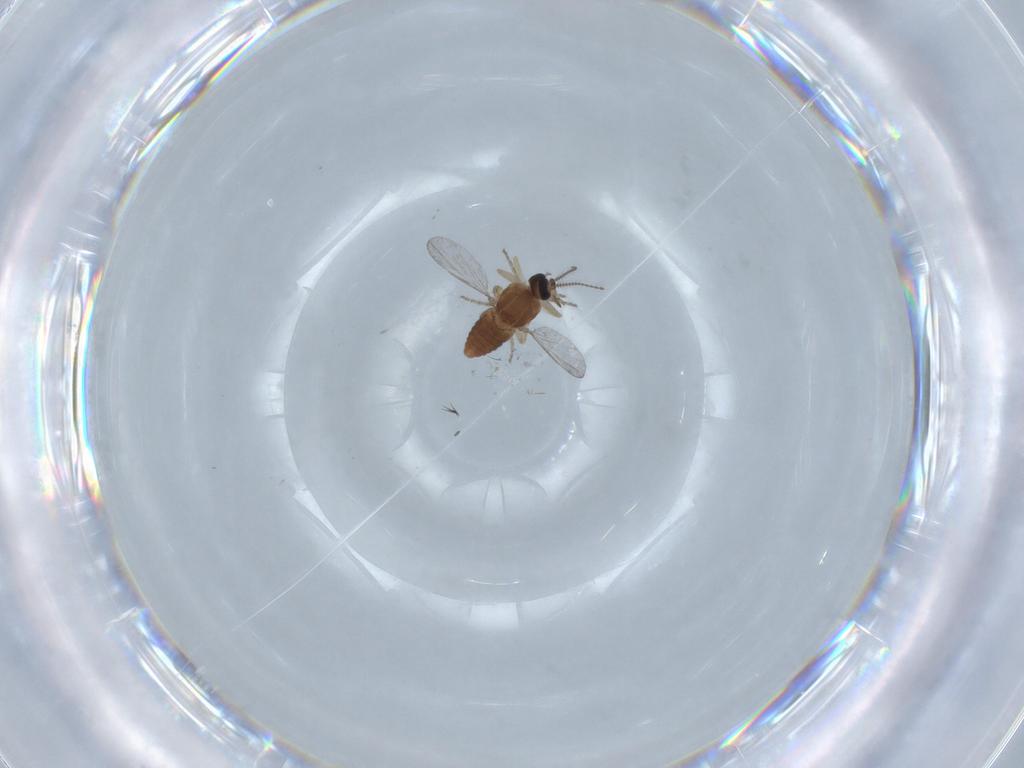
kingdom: Animalia
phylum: Arthropoda
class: Insecta
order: Diptera
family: Ceratopogonidae
